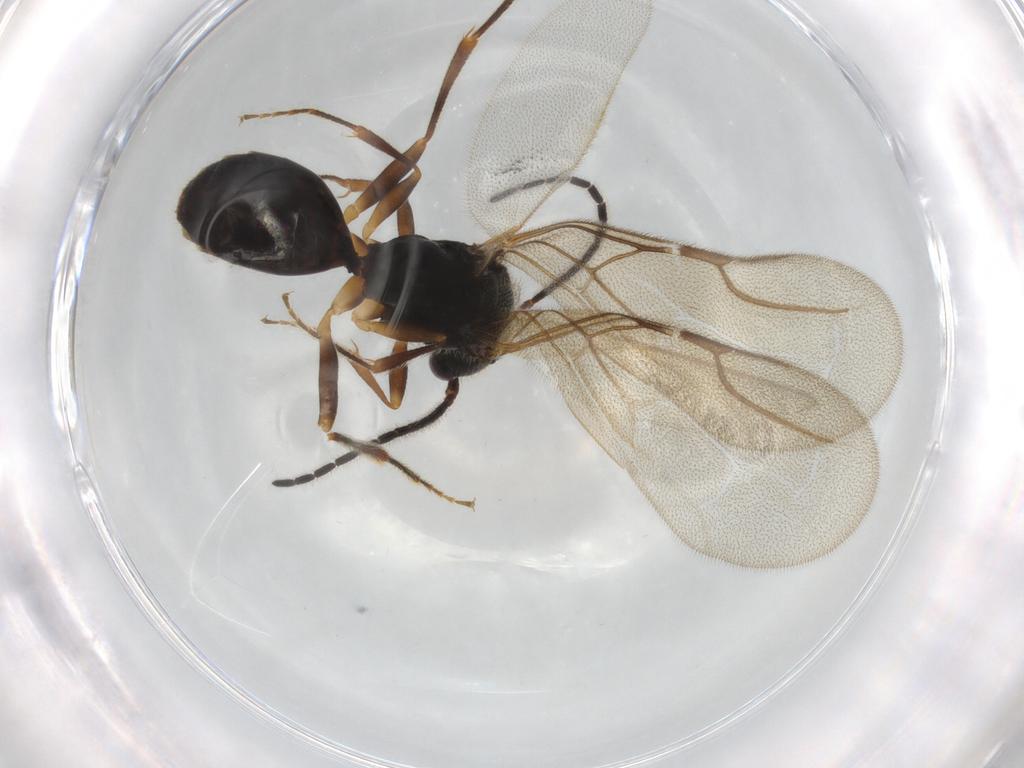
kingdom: Animalia
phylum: Arthropoda
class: Insecta
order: Hymenoptera
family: Bethylidae
